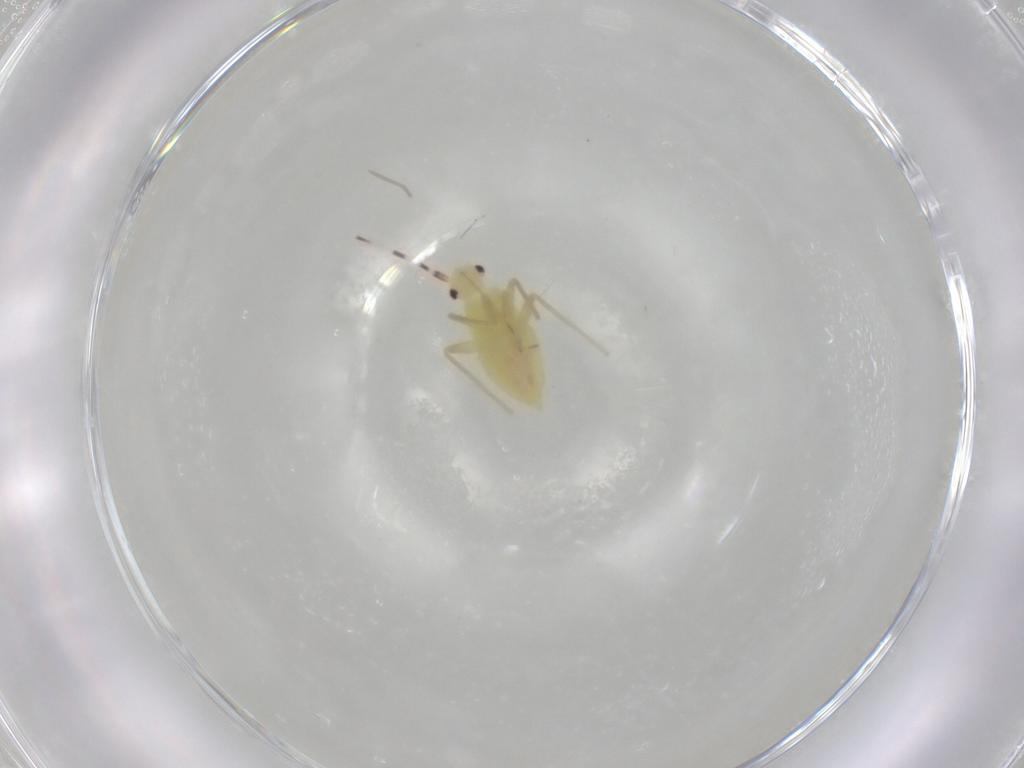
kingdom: Animalia
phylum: Arthropoda
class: Insecta
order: Hemiptera
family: Miridae
